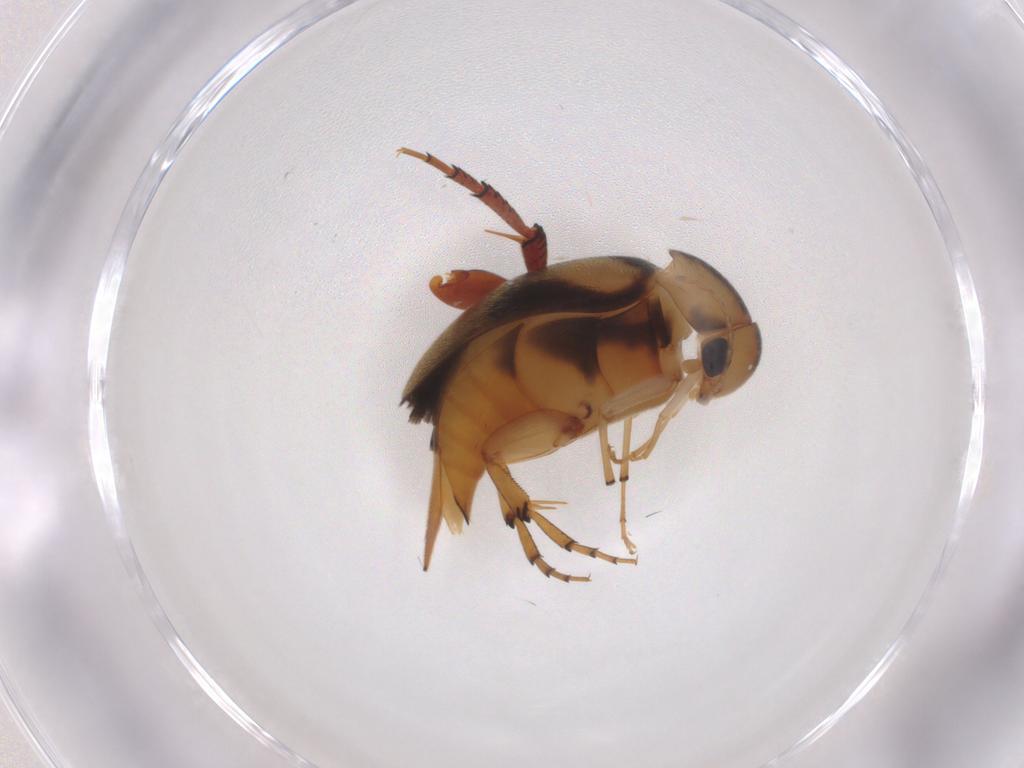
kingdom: Animalia
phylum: Arthropoda
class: Insecta
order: Coleoptera
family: Mordellidae
